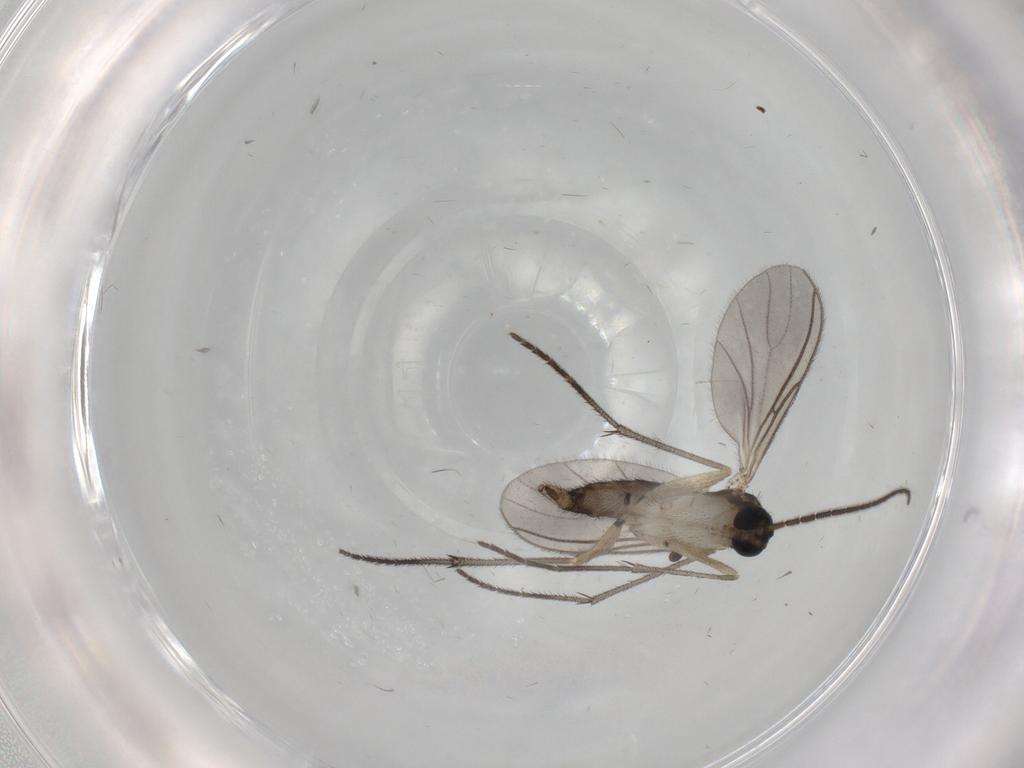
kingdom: Animalia
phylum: Arthropoda
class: Insecta
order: Diptera
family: Sciaridae
